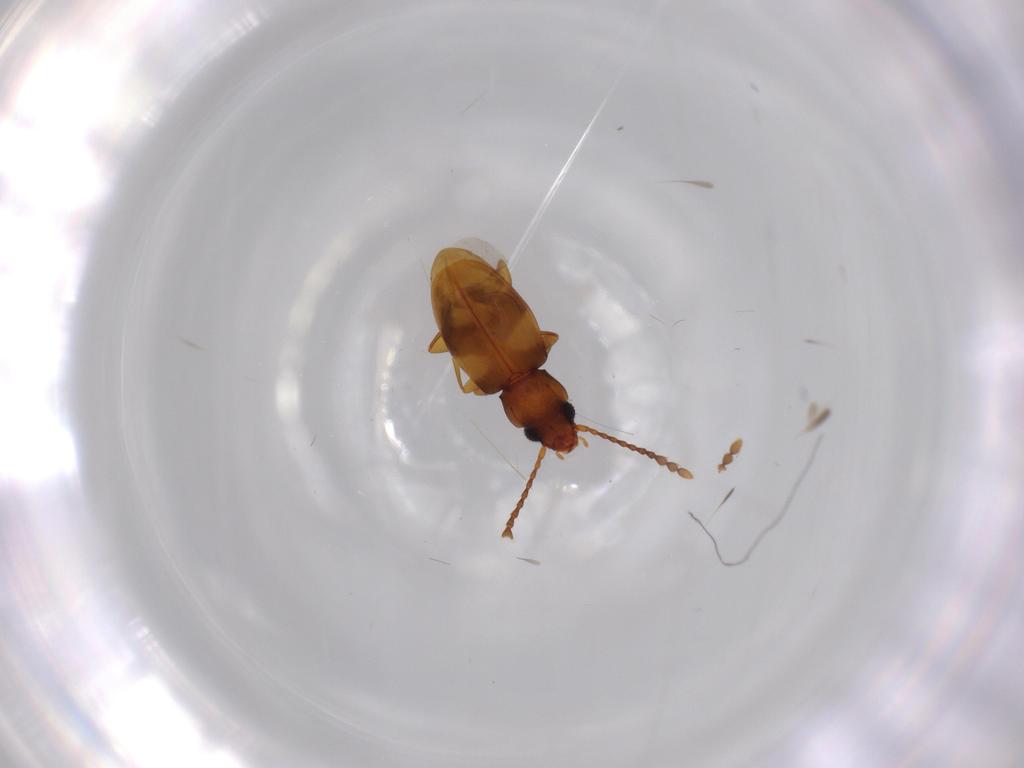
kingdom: Animalia
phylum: Arthropoda
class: Insecta
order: Coleoptera
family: Laemophloeidae
